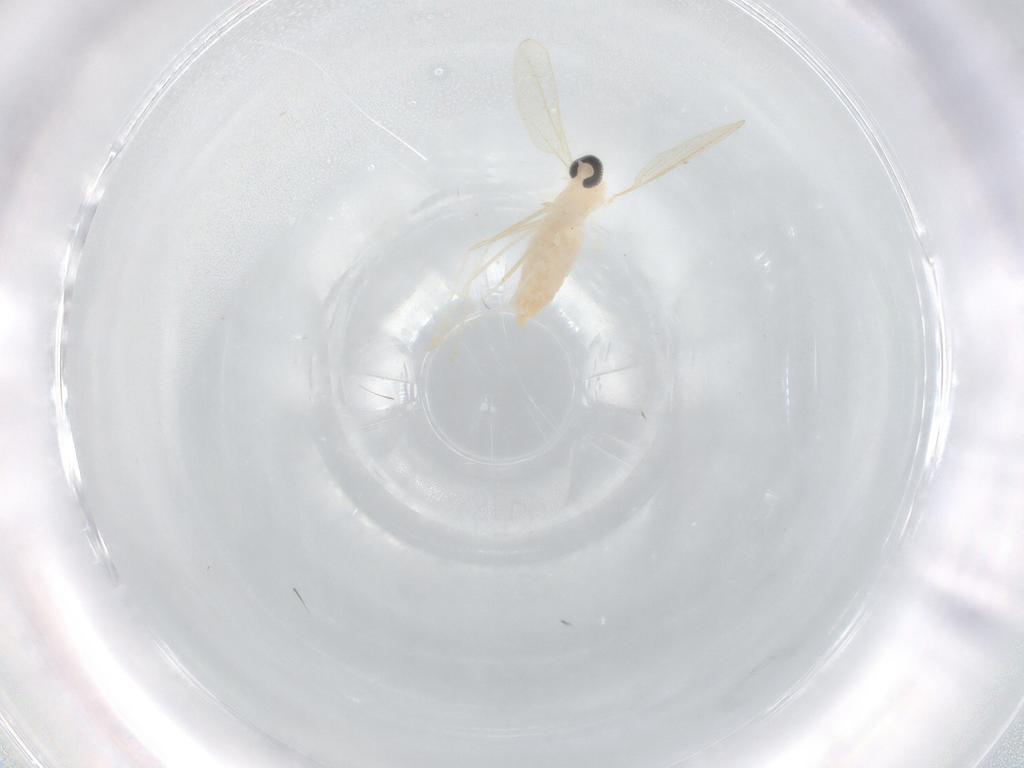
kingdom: Animalia
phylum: Arthropoda
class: Insecta
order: Diptera
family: Cecidomyiidae
